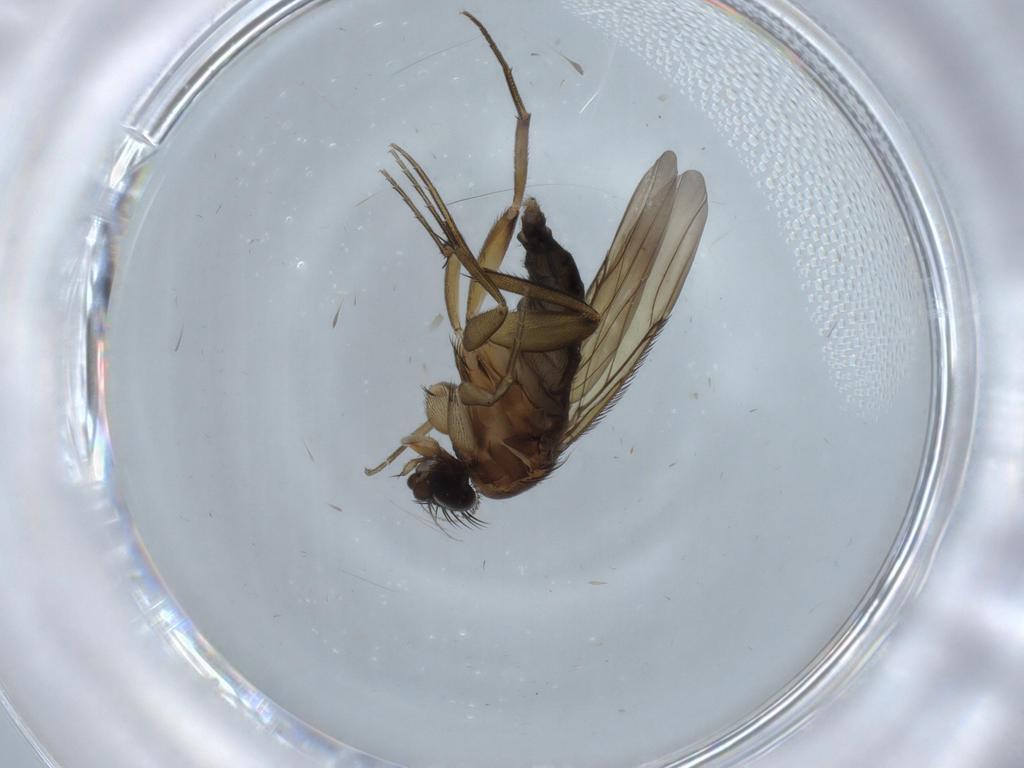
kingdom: Animalia
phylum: Arthropoda
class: Insecta
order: Diptera
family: Phoridae
